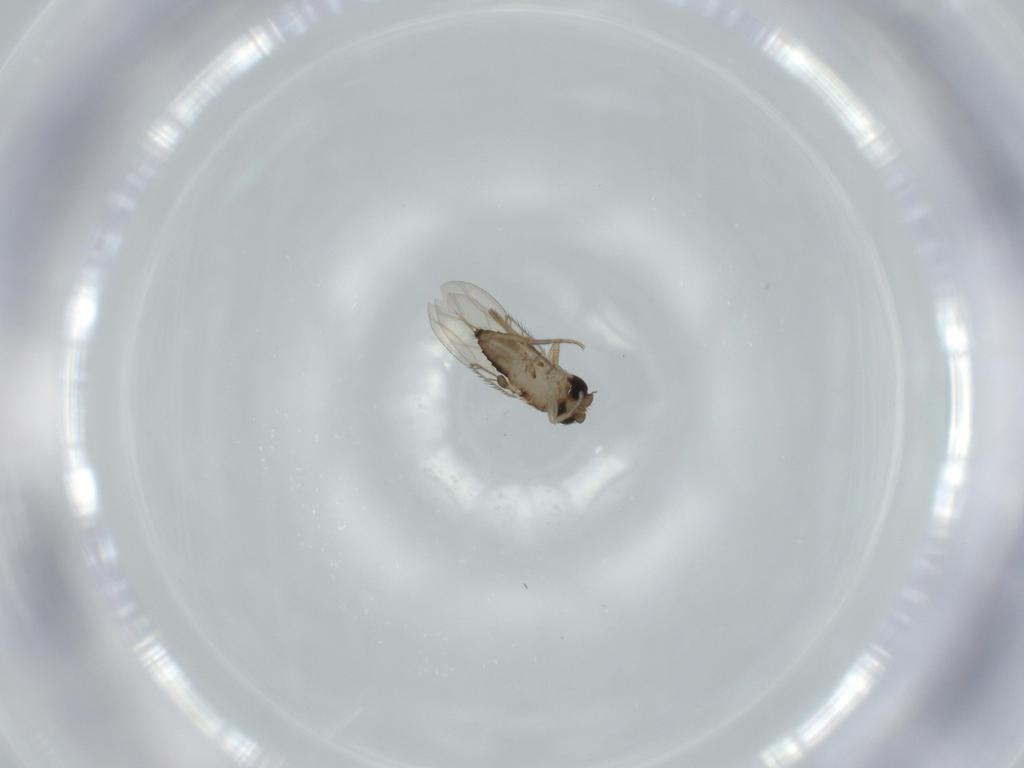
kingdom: Animalia
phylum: Arthropoda
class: Insecta
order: Diptera
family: Phoridae
